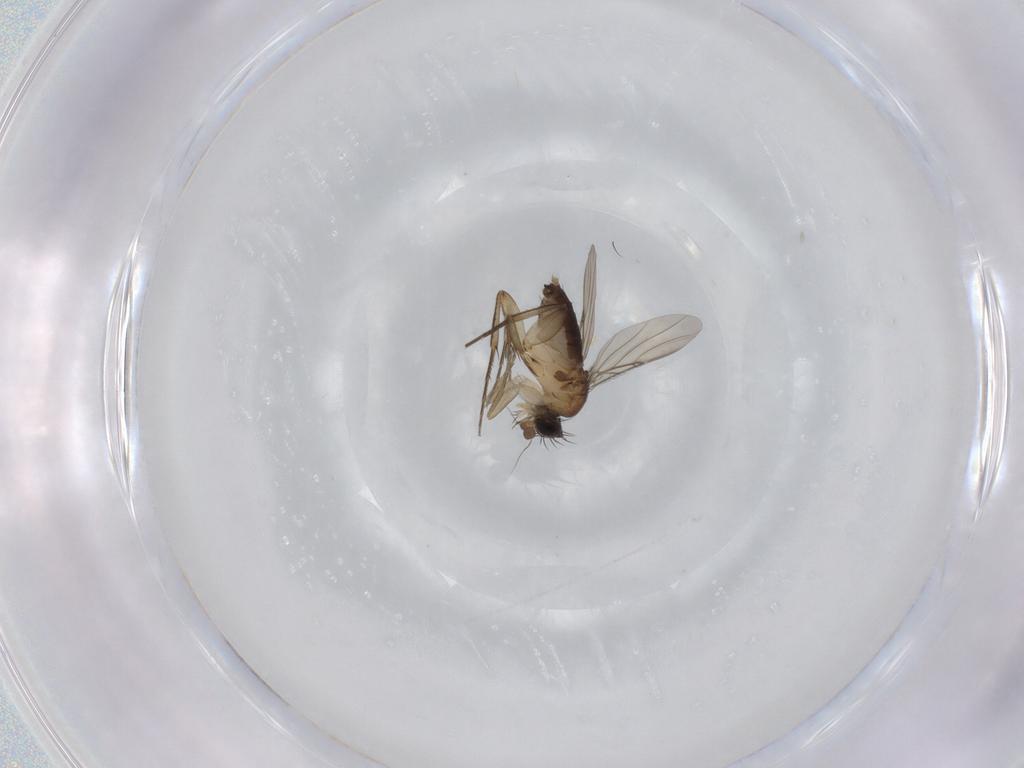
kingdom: Animalia
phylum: Arthropoda
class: Insecta
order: Diptera
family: Phoridae
